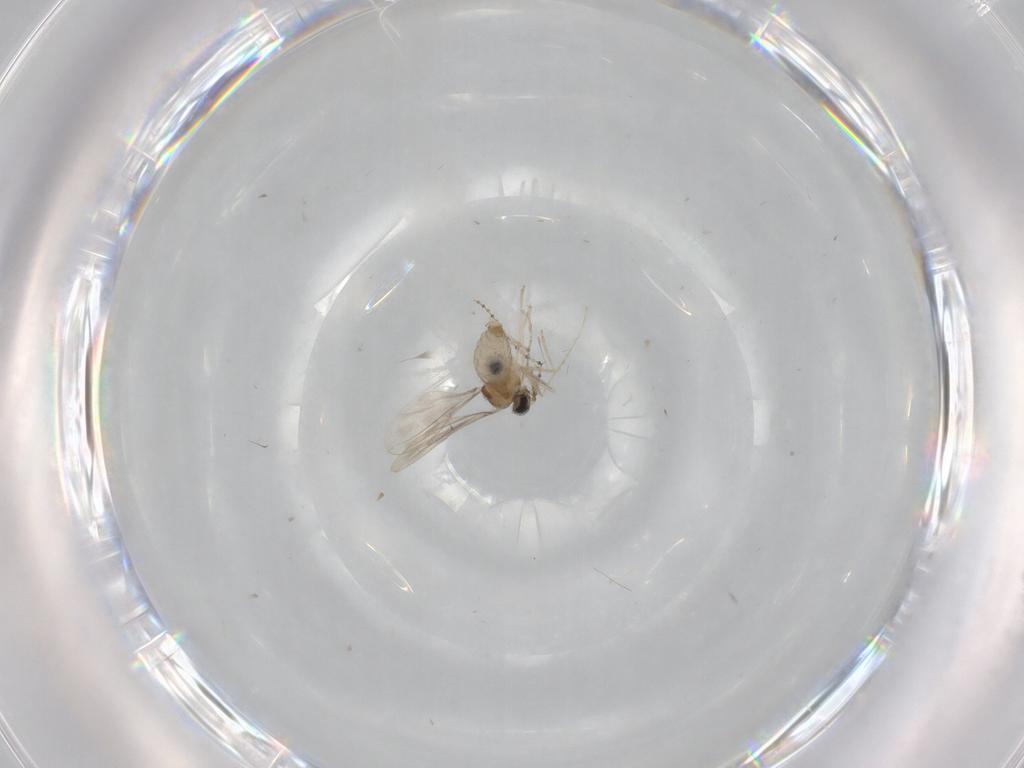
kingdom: Animalia
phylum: Arthropoda
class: Insecta
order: Diptera
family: Cecidomyiidae
